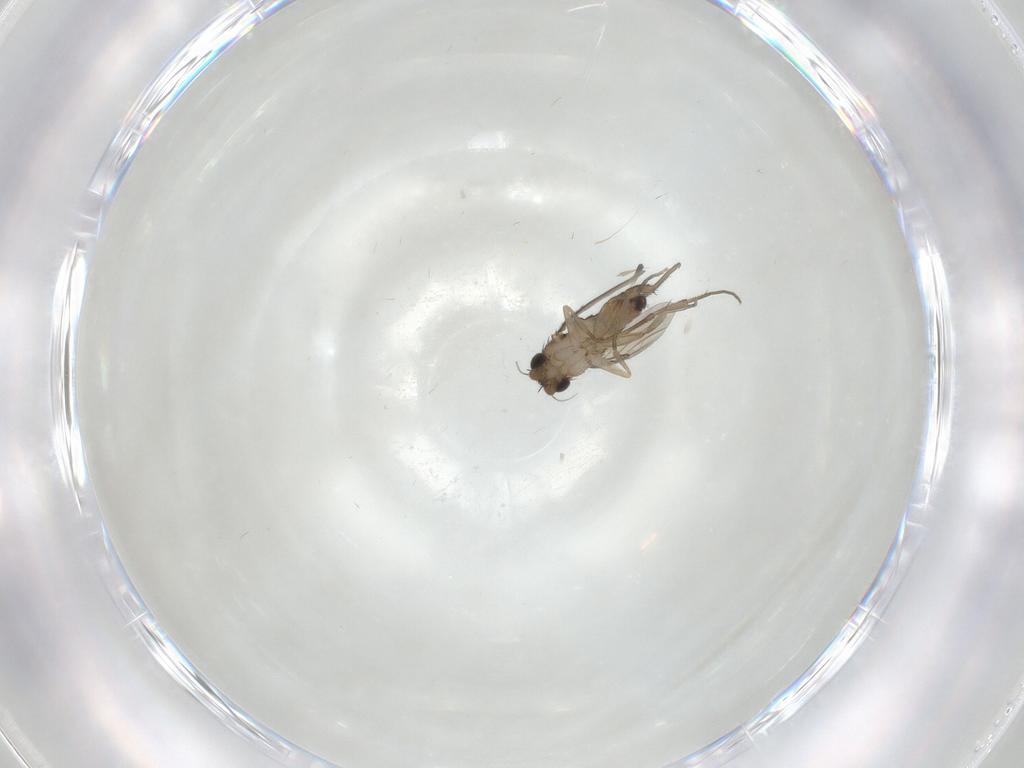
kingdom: Animalia
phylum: Arthropoda
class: Insecta
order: Diptera
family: Phoridae
